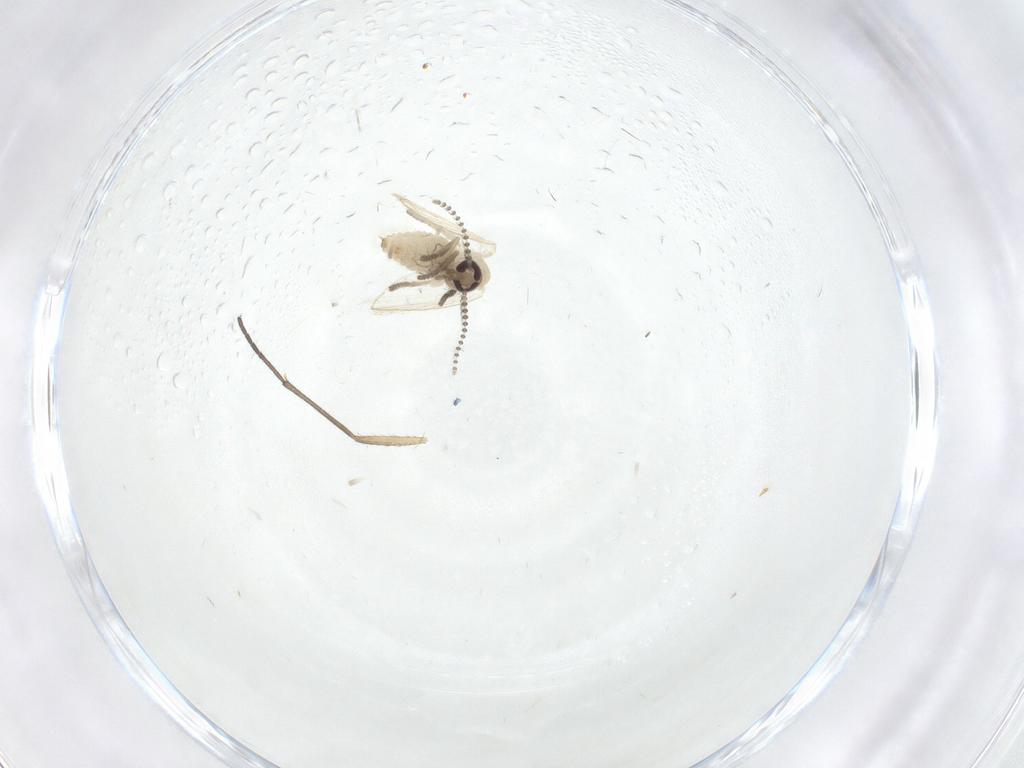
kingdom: Animalia
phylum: Arthropoda
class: Insecta
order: Diptera
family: Psychodidae
